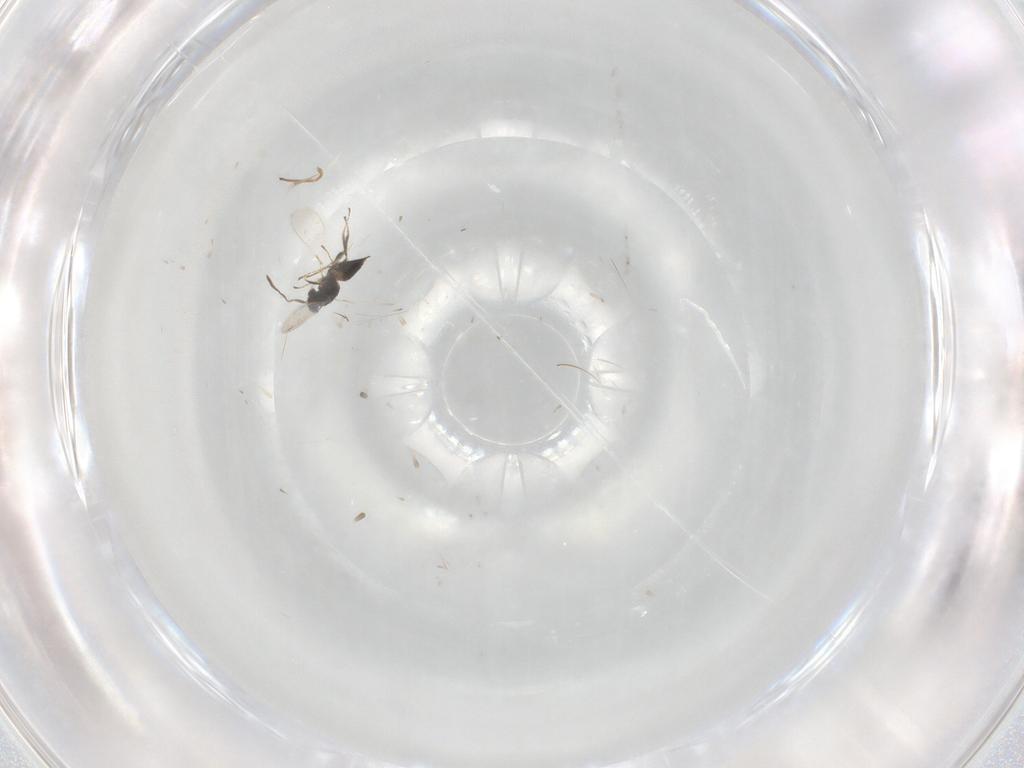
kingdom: Animalia
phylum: Arthropoda
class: Insecta
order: Hymenoptera
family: Mymaridae
